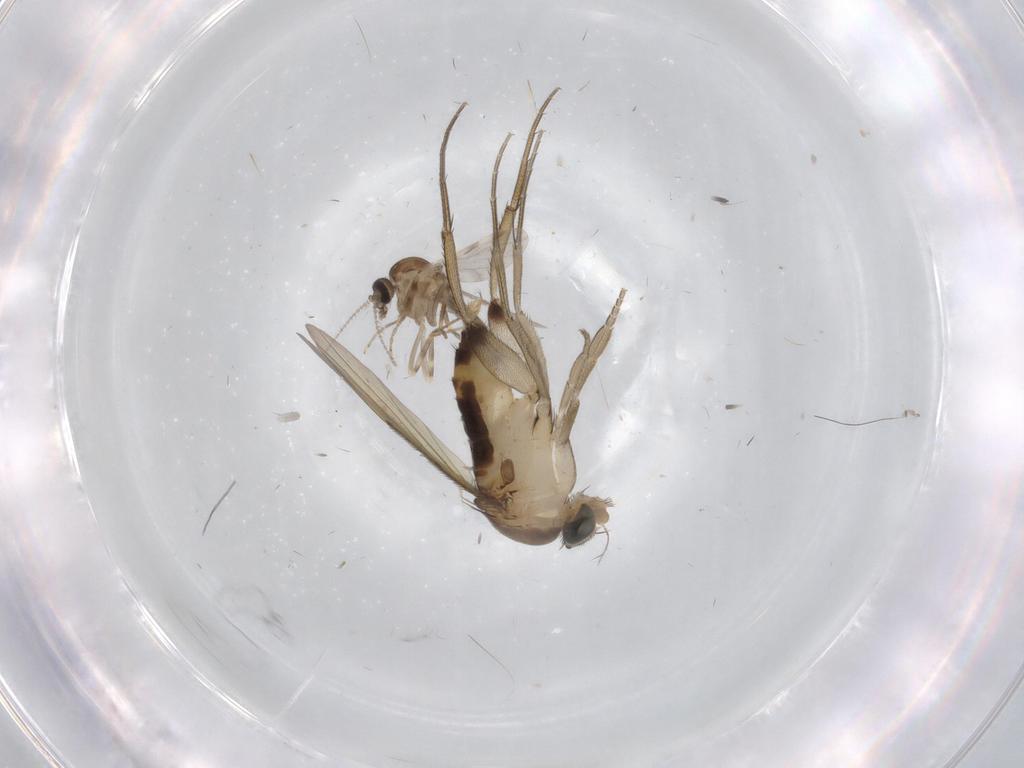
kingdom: Animalia
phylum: Arthropoda
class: Insecta
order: Diptera
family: Phoridae
